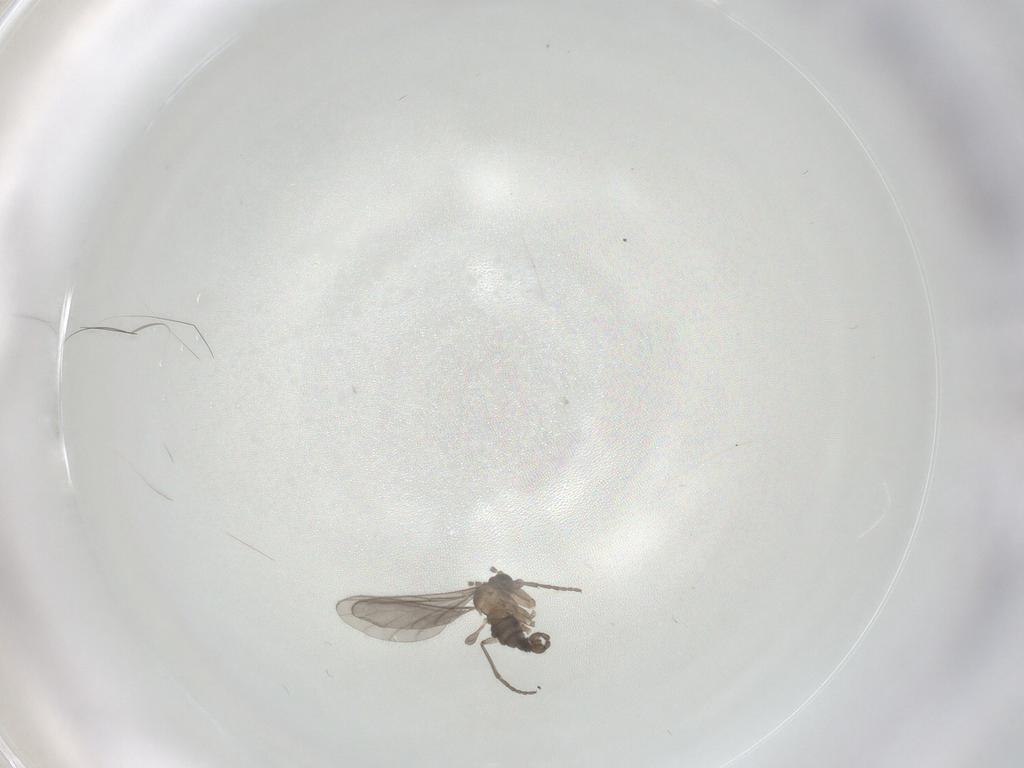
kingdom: Animalia
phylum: Arthropoda
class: Insecta
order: Diptera
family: Sciaridae
